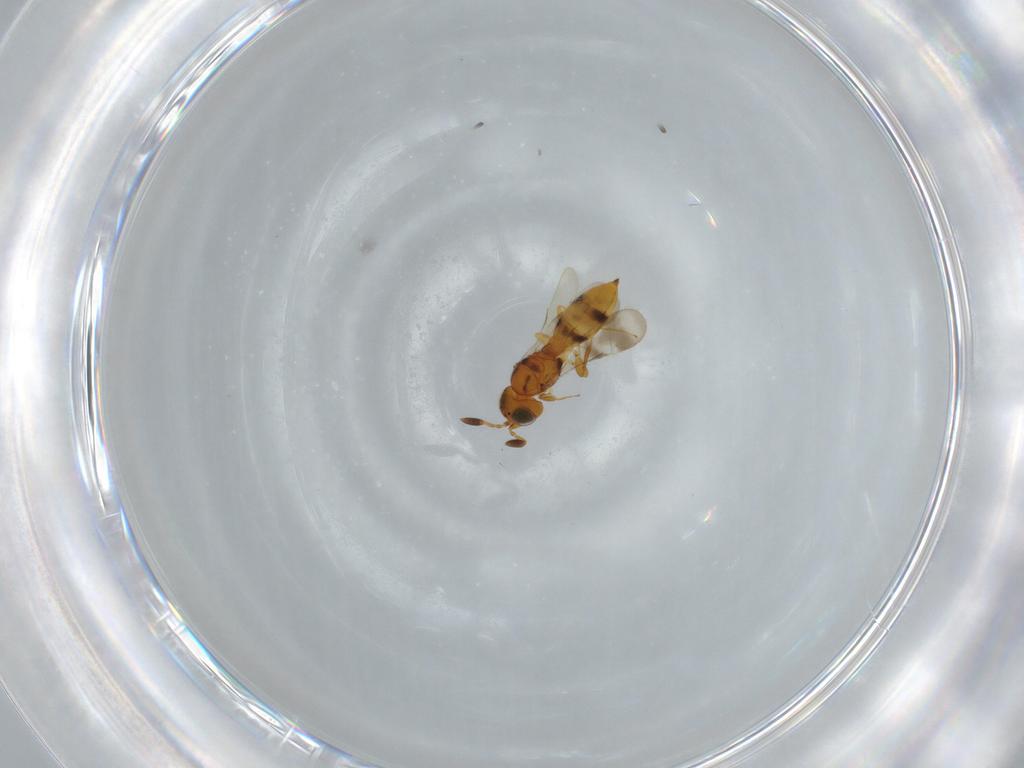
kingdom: Animalia
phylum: Arthropoda
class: Insecta
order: Hymenoptera
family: Scelionidae
